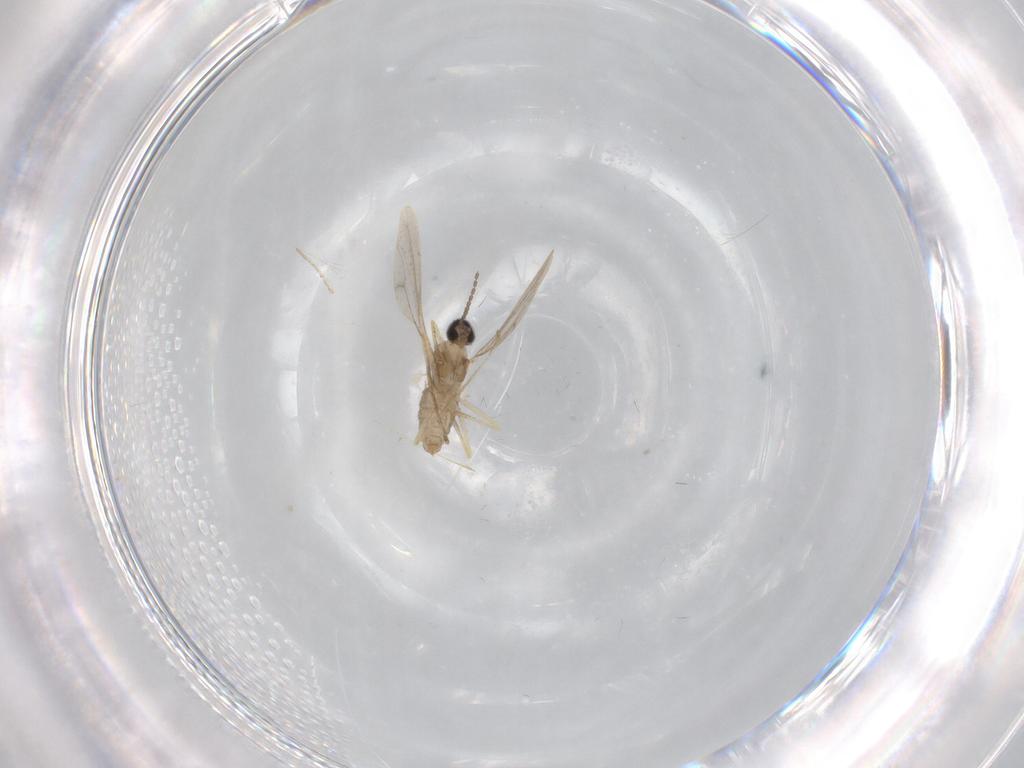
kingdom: Animalia
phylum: Arthropoda
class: Insecta
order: Diptera
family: Cecidomyiidae
